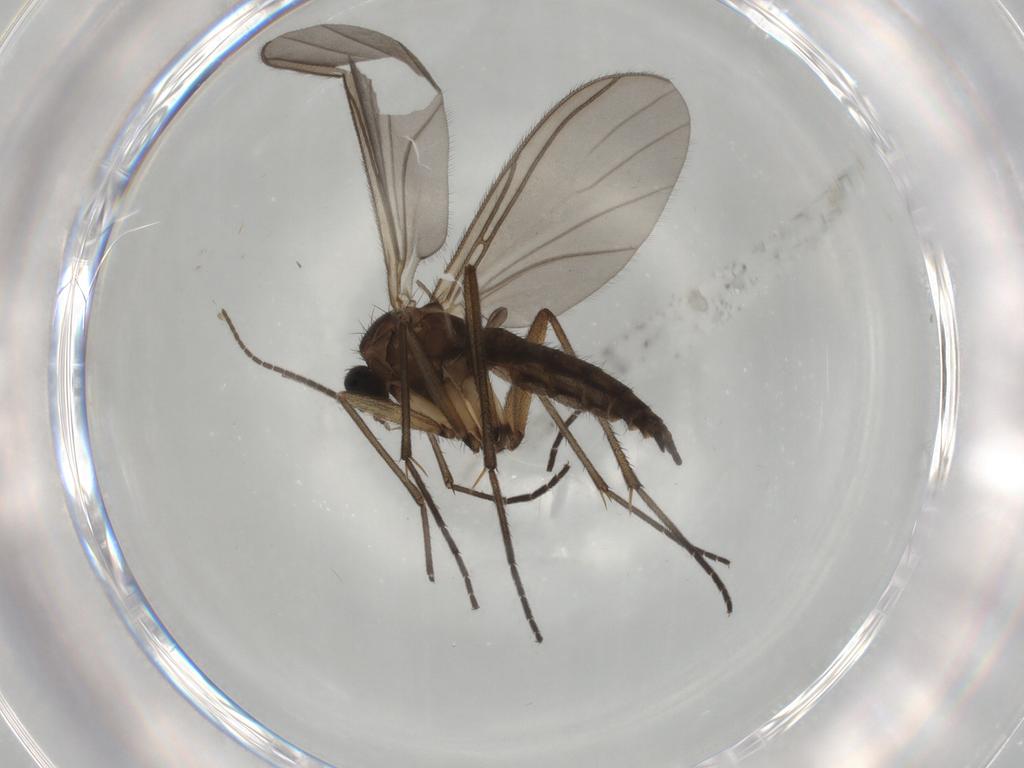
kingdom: Animalia
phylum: Arthropoda
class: Insecta
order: Diptera
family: Sciaridae
